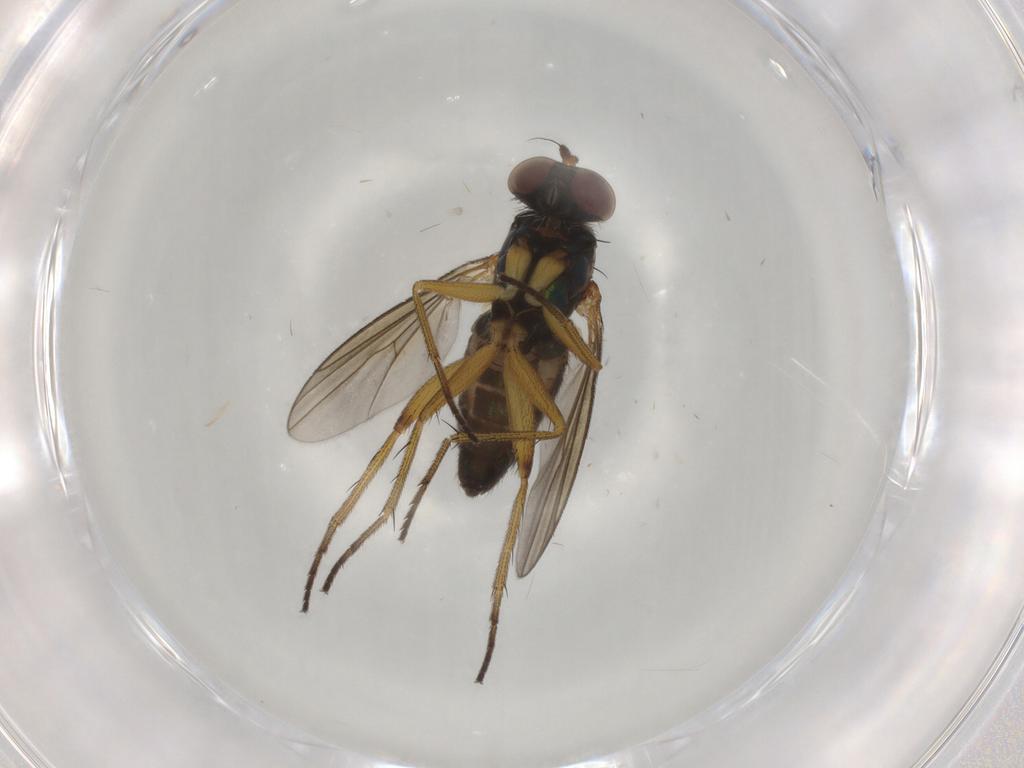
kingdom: Animalia
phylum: Arthropoda
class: Insecta
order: Diptera
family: Dolichopodidae
